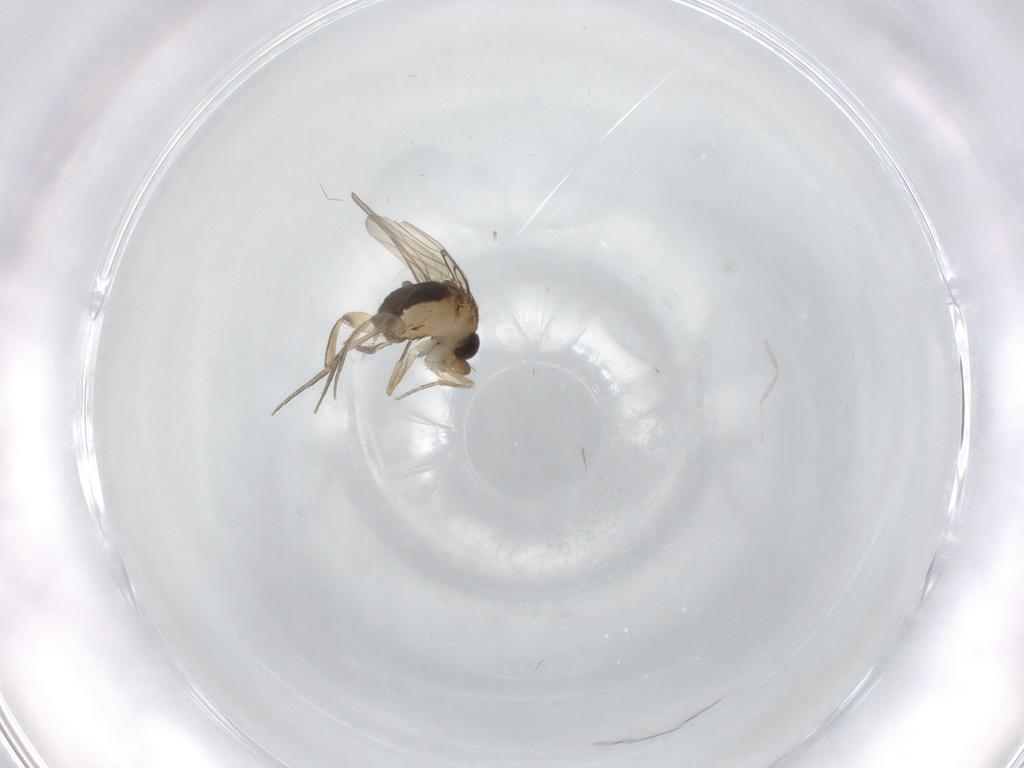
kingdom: Animalia
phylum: Arthropoda
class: Insecta
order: Diptera
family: Phoridae
